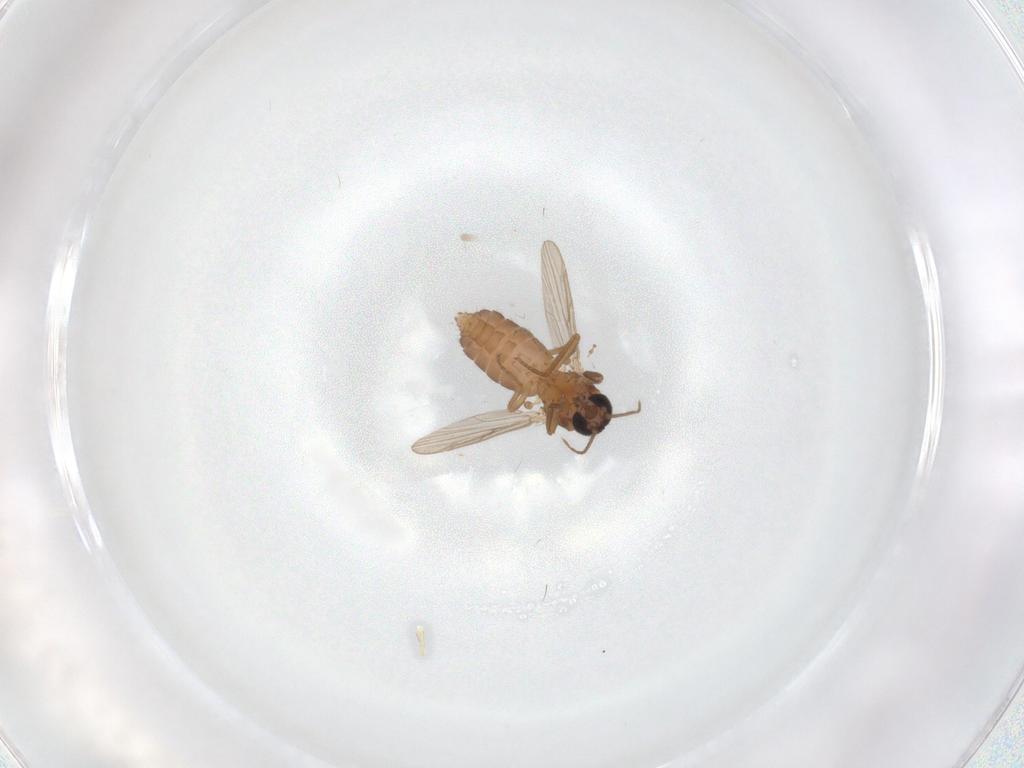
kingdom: Animalia
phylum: Arthropoda
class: Insecta
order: Diptera
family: Ceratopogonidae
